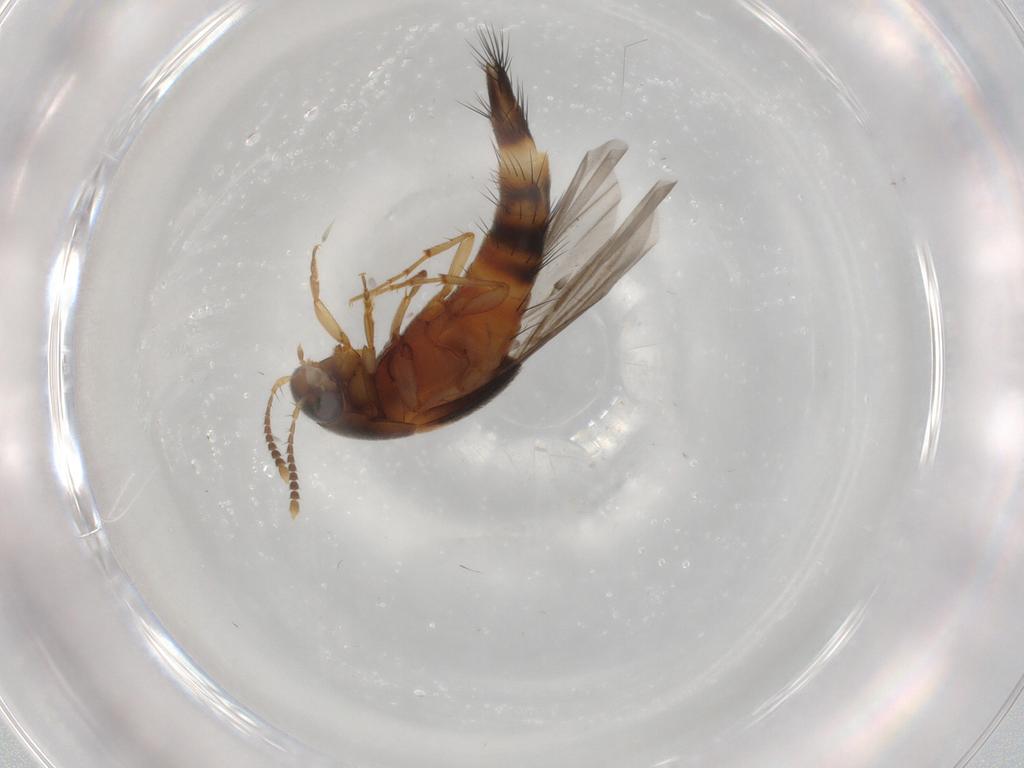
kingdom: Animalia
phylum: Arthropoda
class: Insecta
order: Coleoptera
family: Staphylinidae
